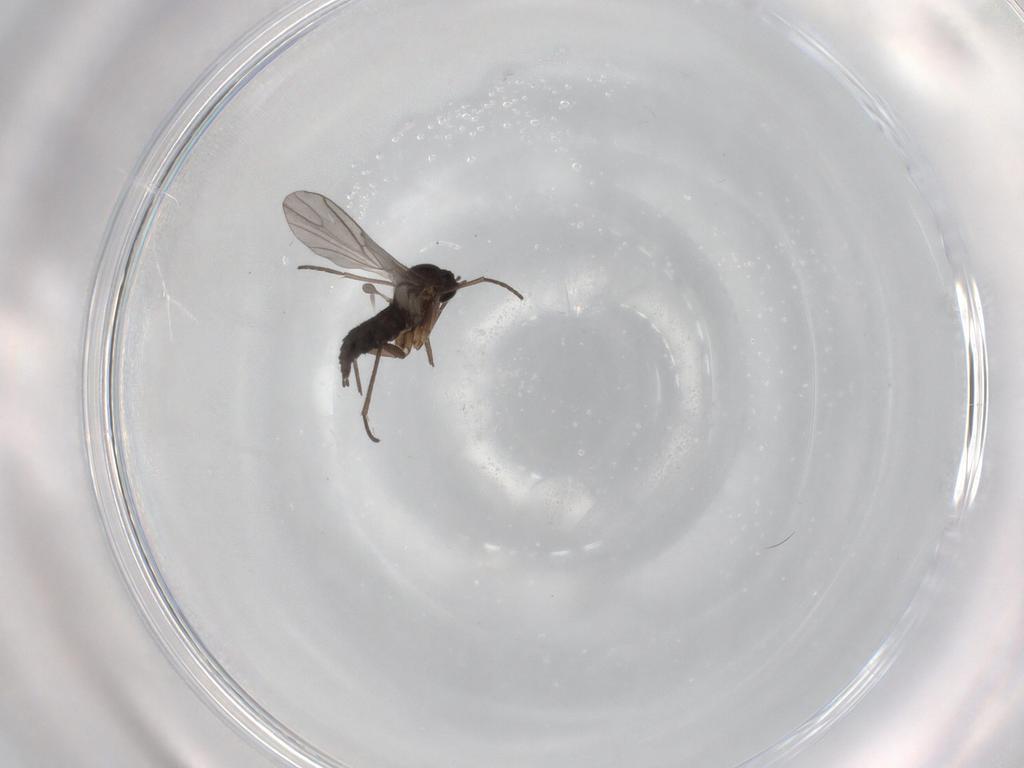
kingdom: Animalia
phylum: Arthropoda
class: Insecta
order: Diptera
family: Sciaridae
